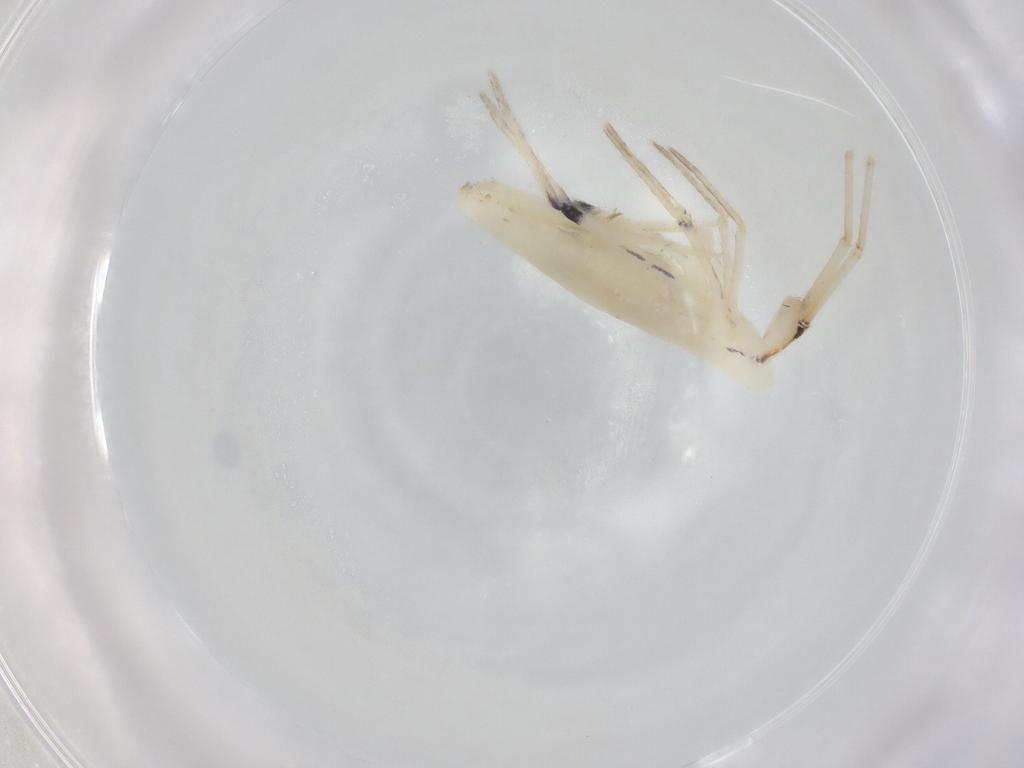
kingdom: Animalia
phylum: Arthropoda
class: Collembola
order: Entomobryomorpha
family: Entomobryidae
